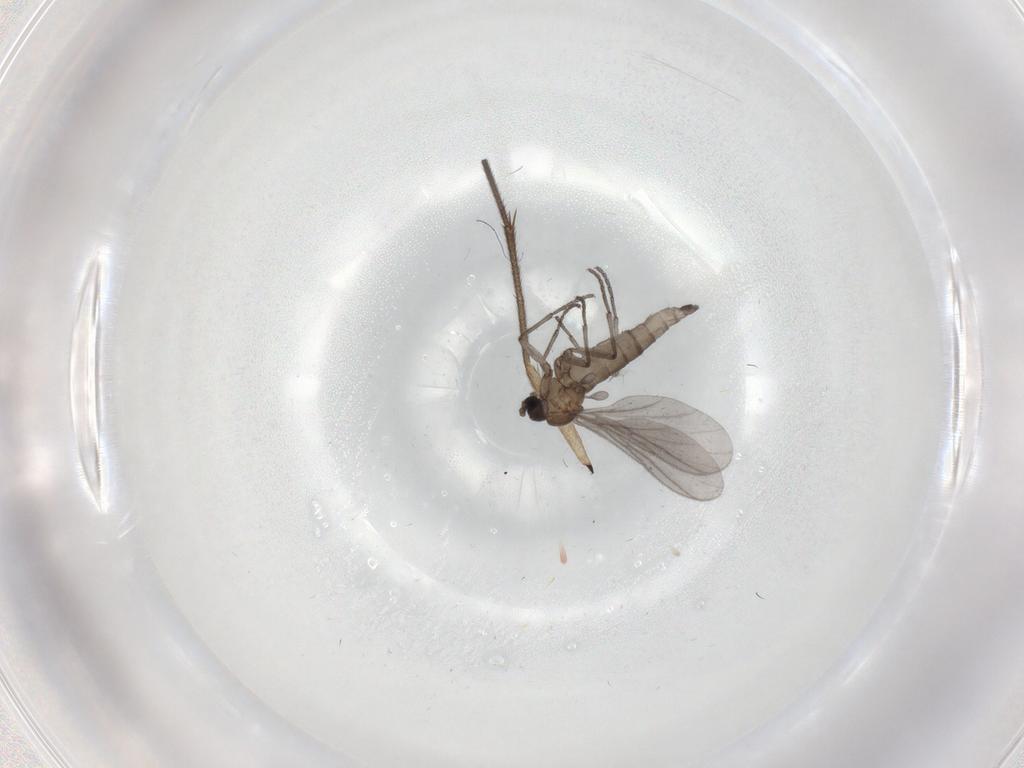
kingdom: Animalia
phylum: Arthropoda
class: Insecta
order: Diptera
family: Sciaridae
